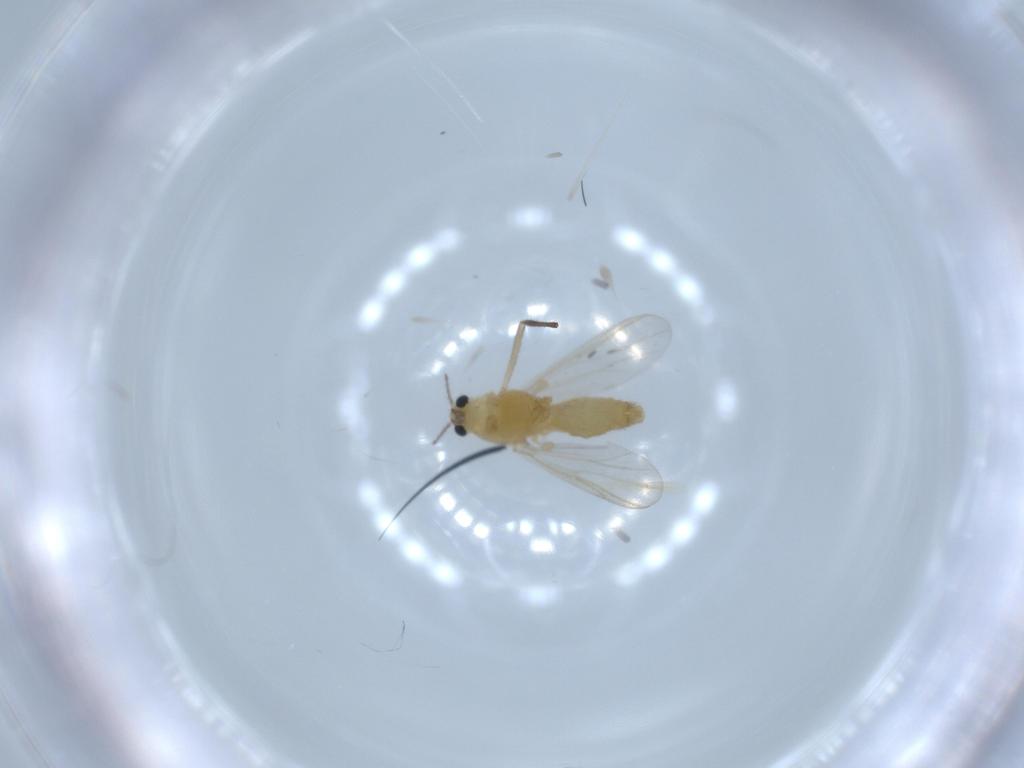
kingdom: Animalia
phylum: Arthropoda
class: Insecta
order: Diptera
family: Chironomidae
